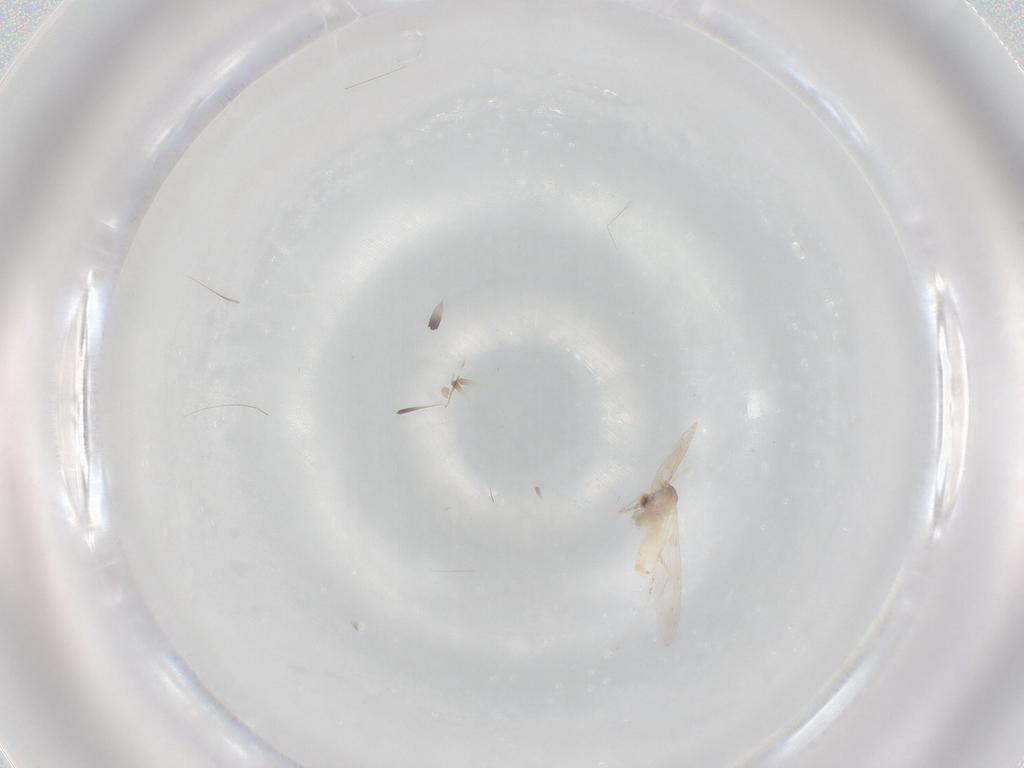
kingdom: Animalia
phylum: Arthropoda
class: Insecta
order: Diptera
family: Cecidomyiidae
